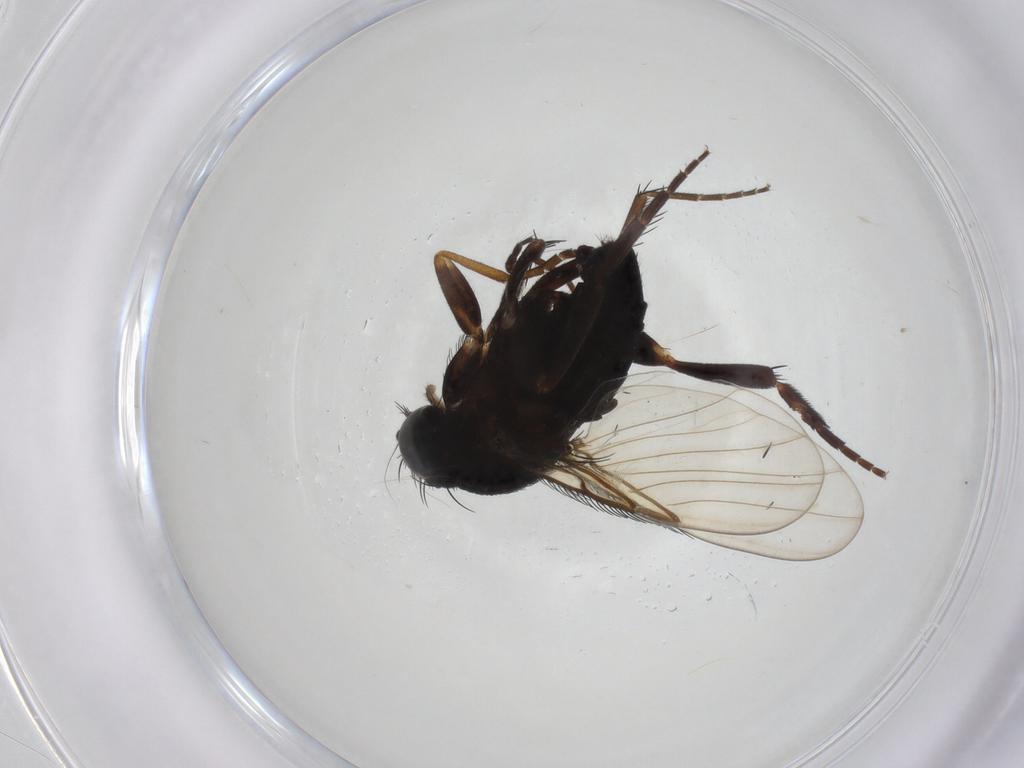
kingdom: Animalia
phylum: Arthropoda
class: Insecta
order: Diptera
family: Phoridae
